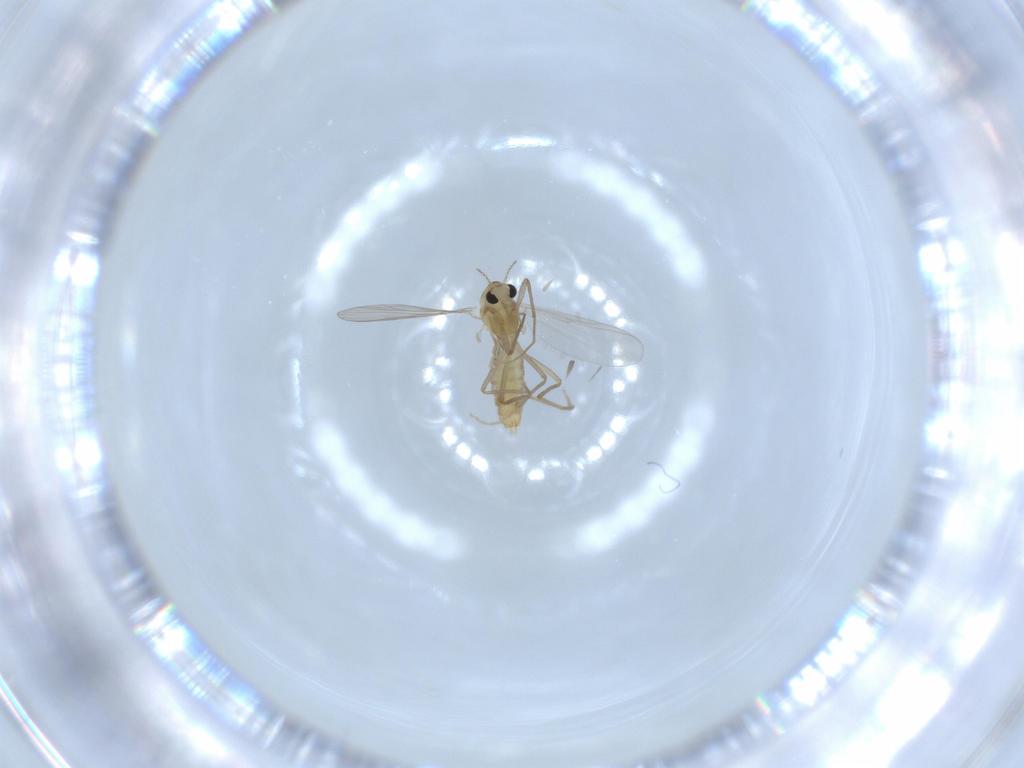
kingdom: Animalia
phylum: Arthropoda
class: Insecta
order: Diptera
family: Chironomidae
